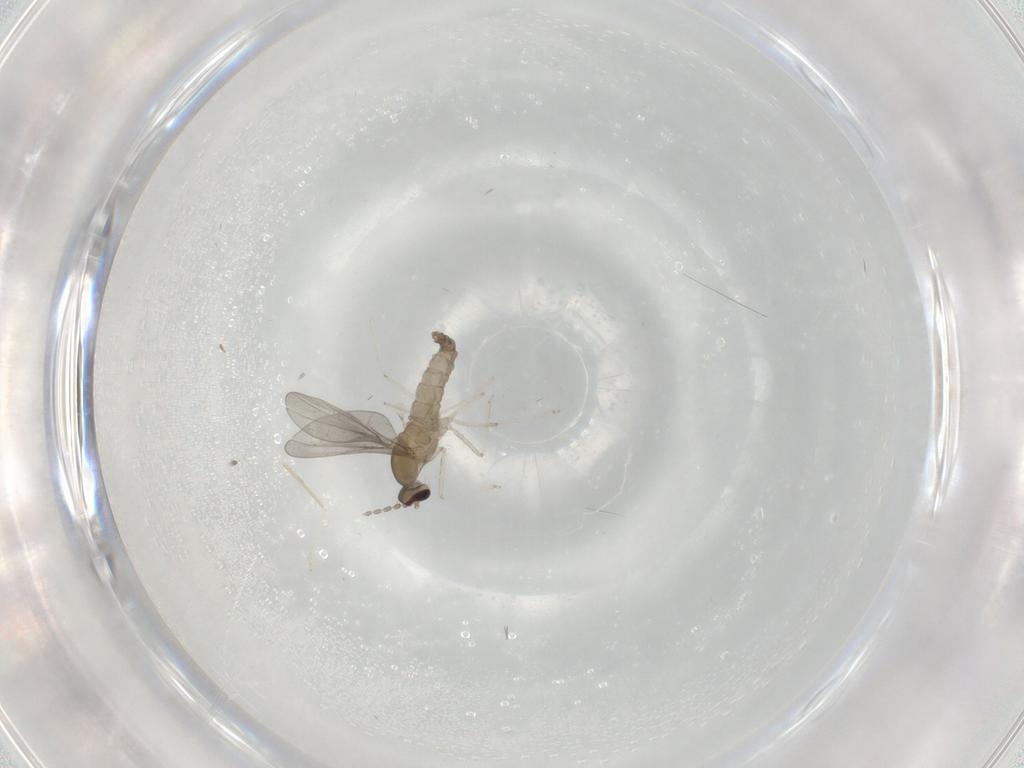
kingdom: Animalia
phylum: Arthropoda
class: Insecta
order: Diptera
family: Cecidomyiidae
